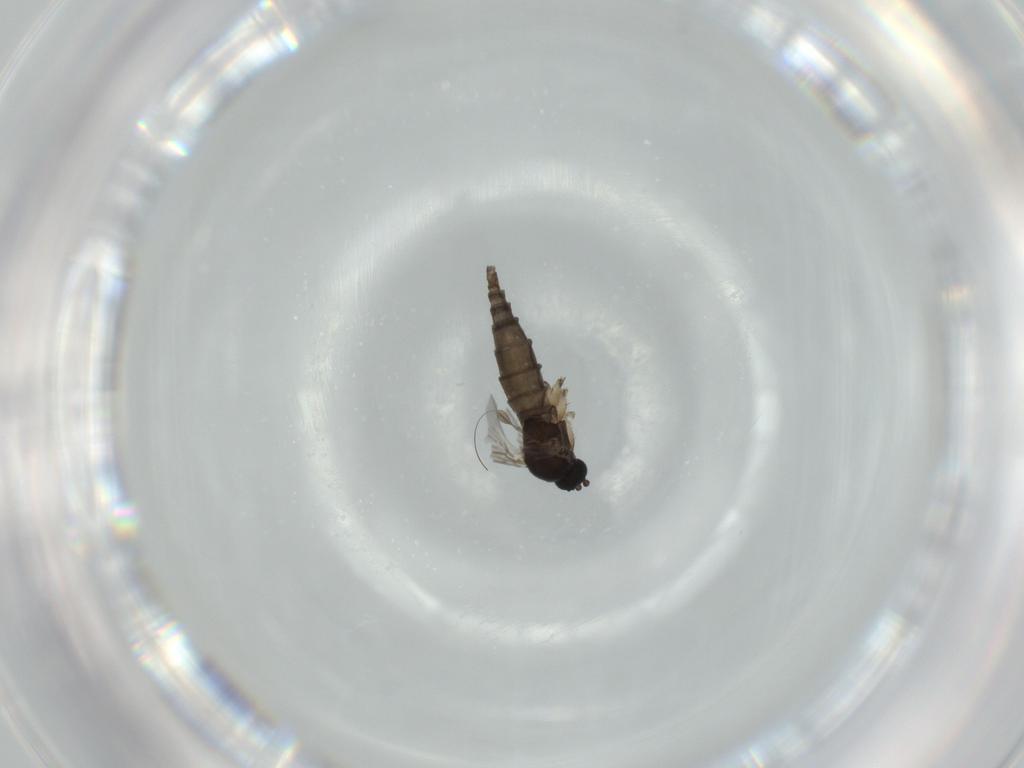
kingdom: Animalia
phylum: Arthropoda
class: Insecta
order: Diptera
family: Sciaridae
